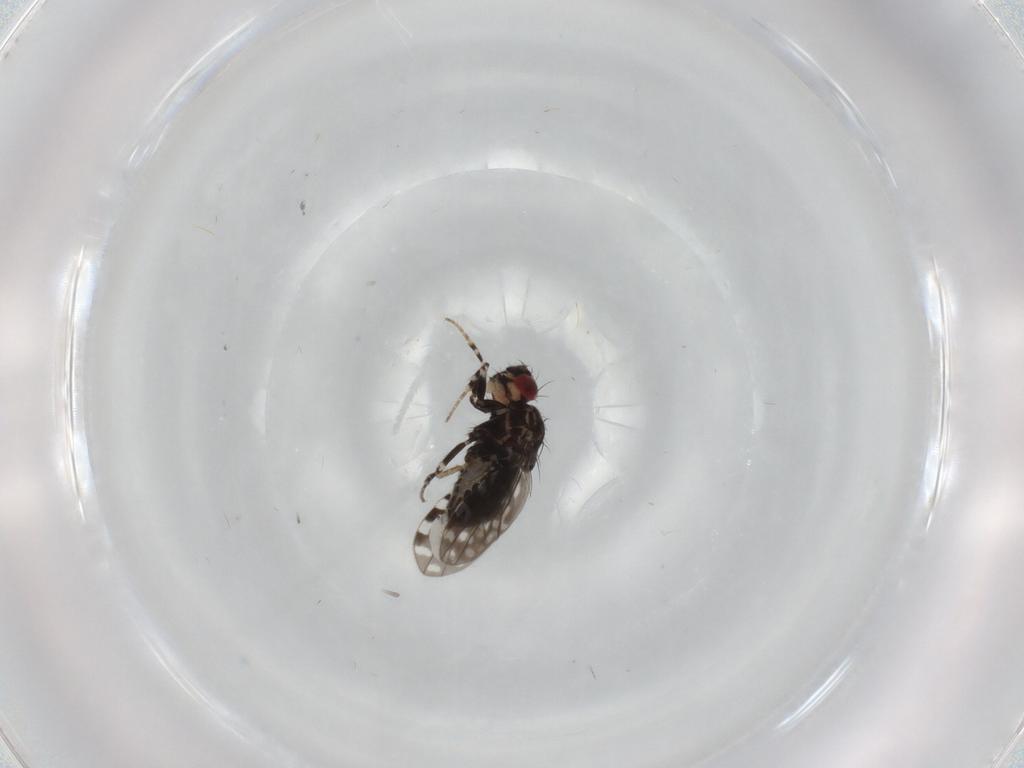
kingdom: Animalia
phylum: Arthropoda
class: Insecta
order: Diptera
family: Drosophilidae
